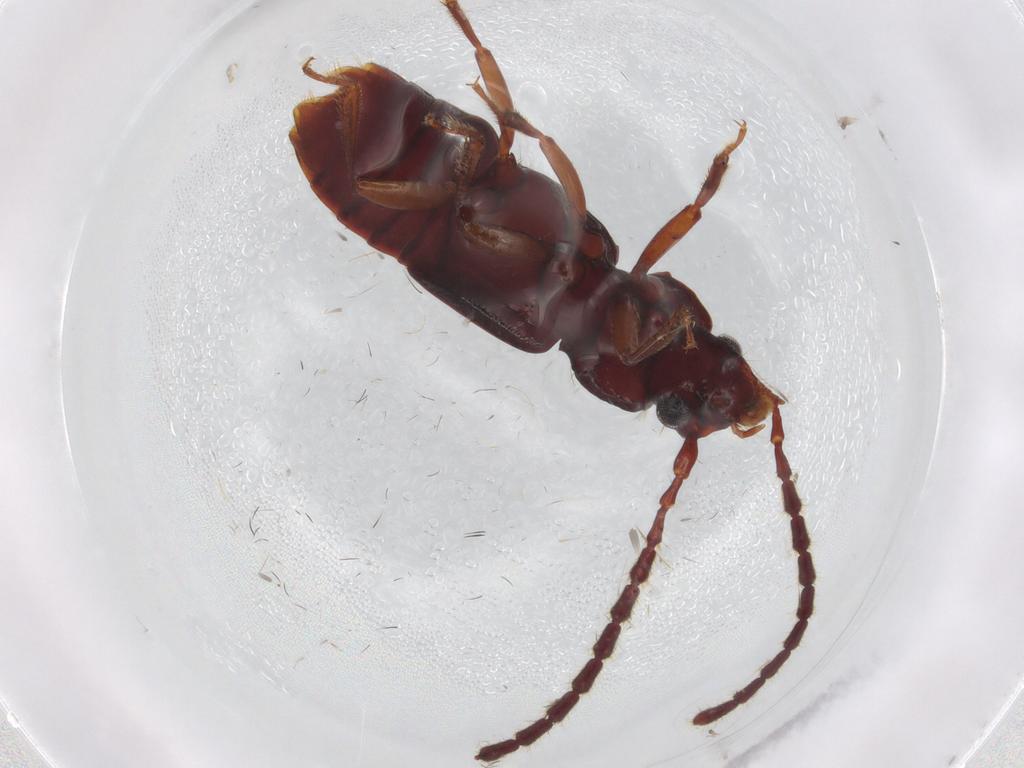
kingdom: Animalia
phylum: Arthropoda
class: Insecta
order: Coleoptera
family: Staphylinidae
